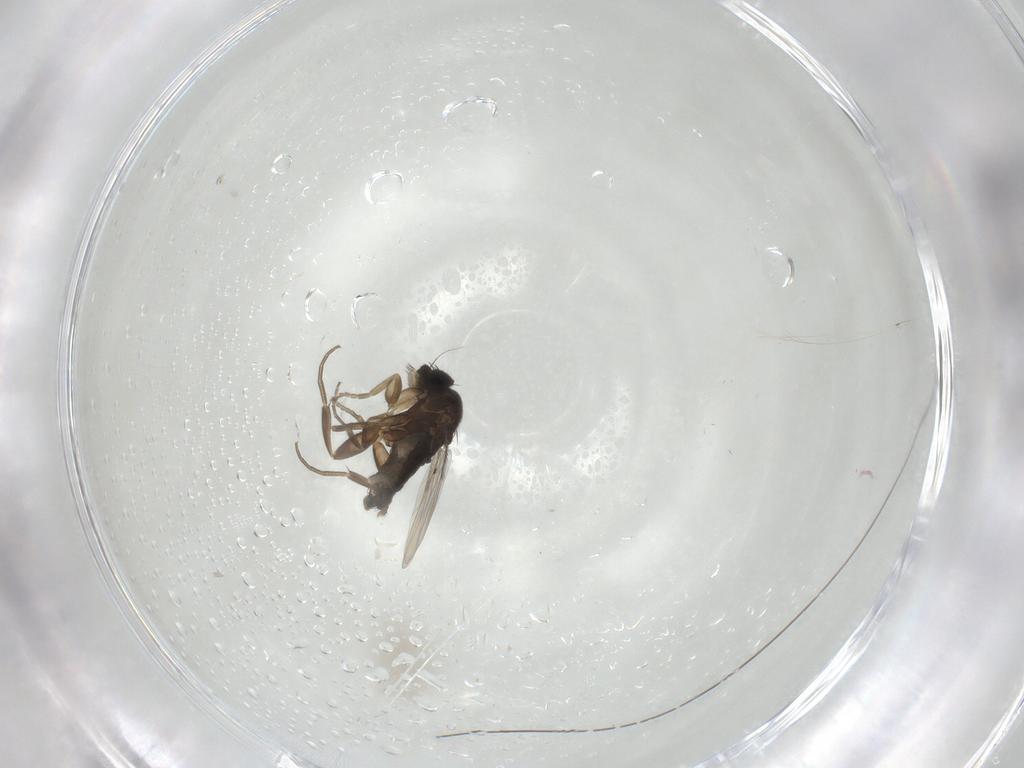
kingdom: Animalia
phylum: Arthropoda
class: Insecta
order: Diptera
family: Phoridae
